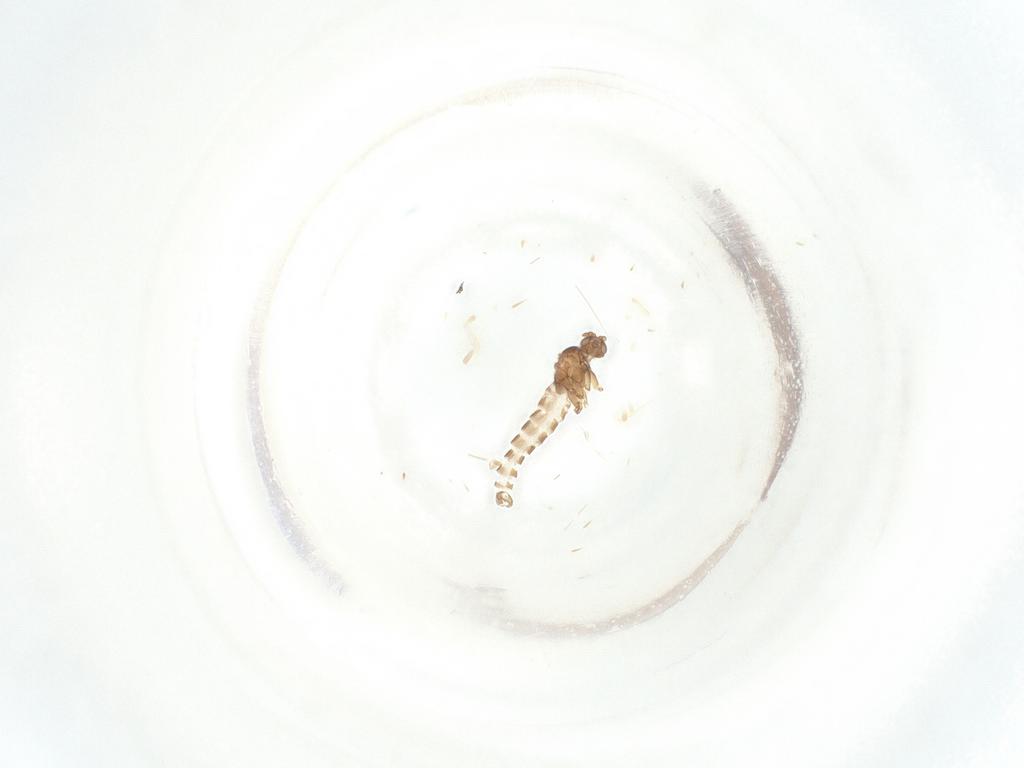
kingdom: Animalia
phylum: Arthropoda
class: Insecta
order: Diptera
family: Sciaridae
